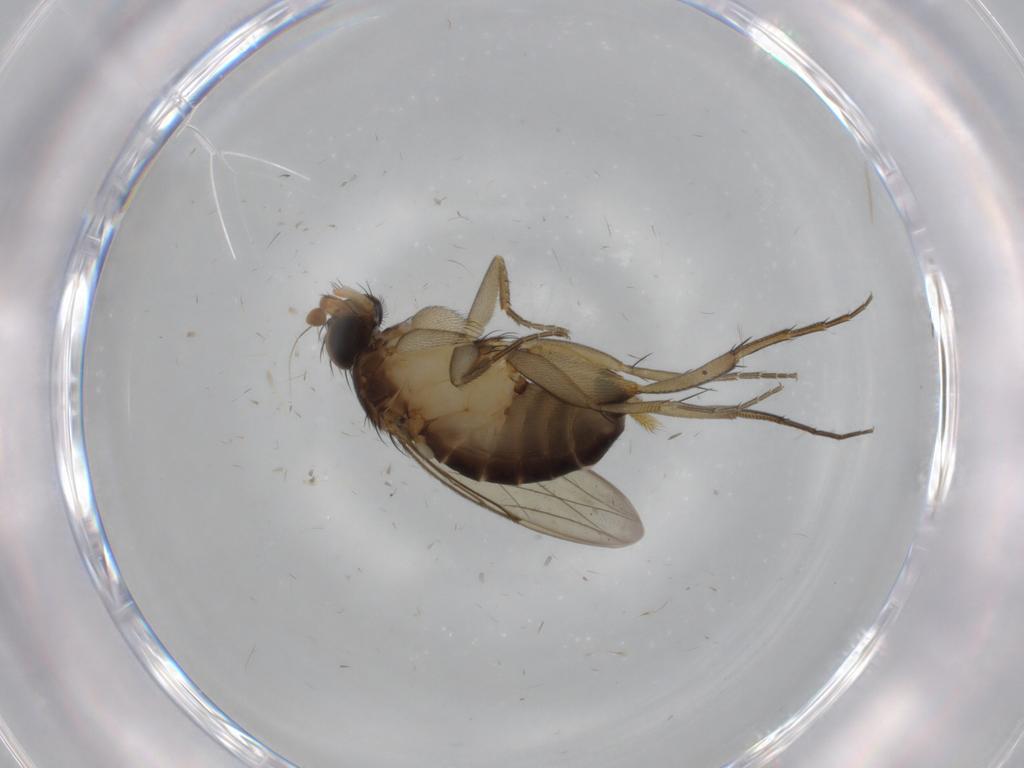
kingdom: Animalia
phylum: Arthropoda
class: Insecta
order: Diptera
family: Phoridae
